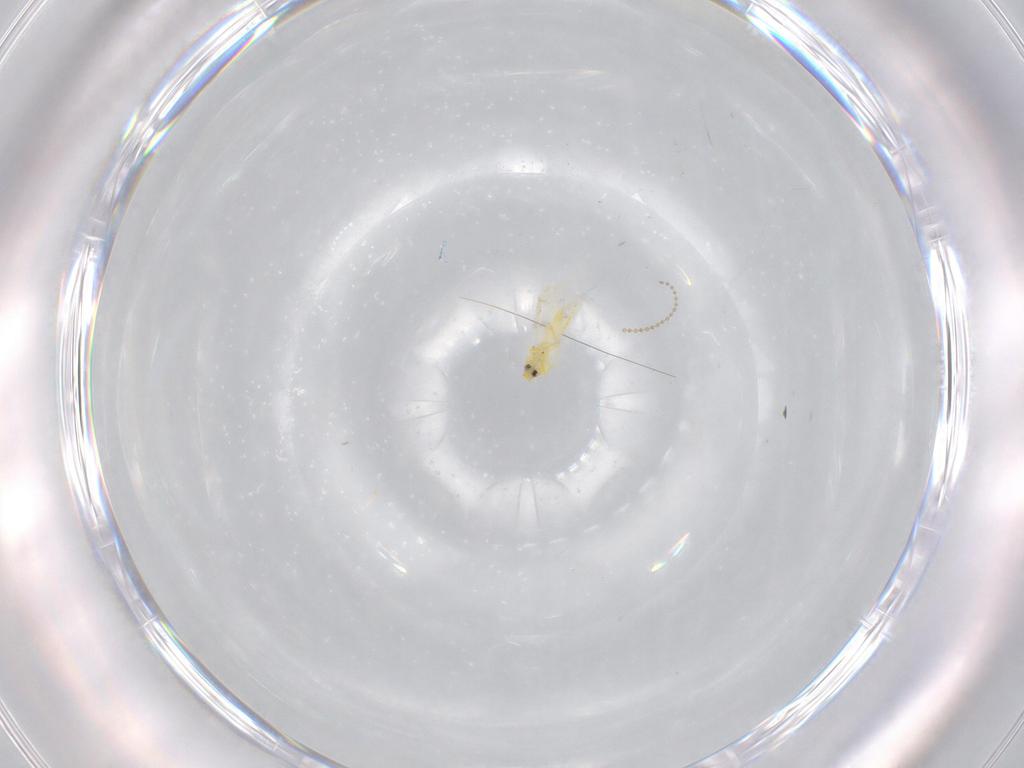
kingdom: Animalia
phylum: Arthropoda
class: Insecta
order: Hemiptera
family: Aleyrodidae
